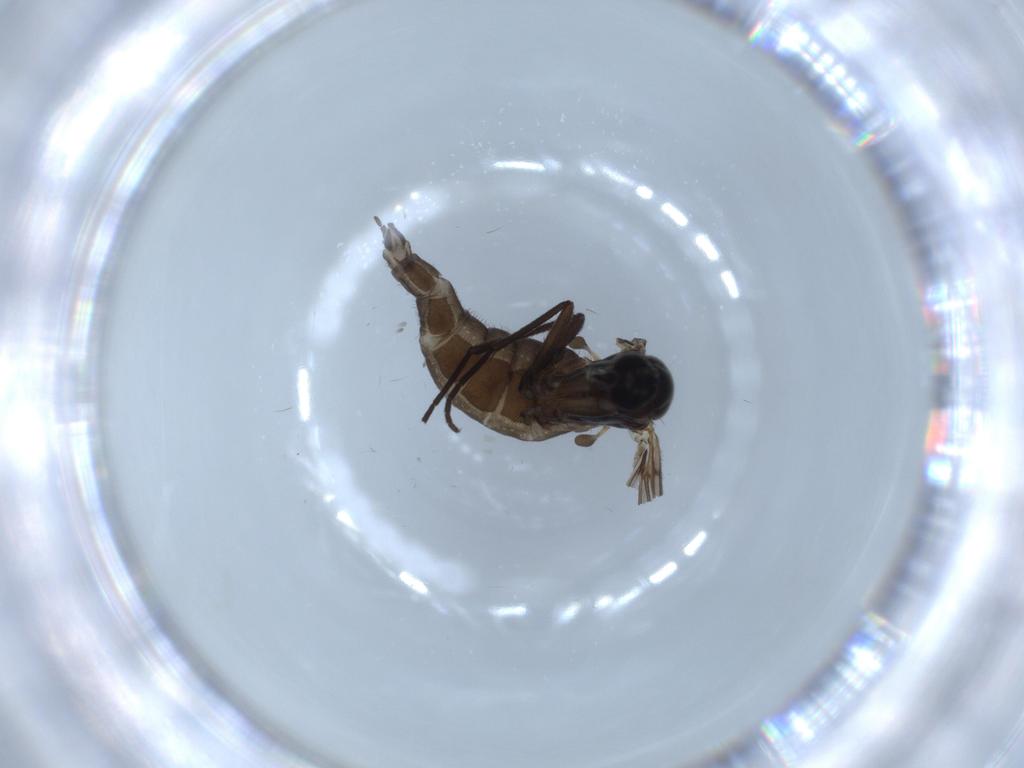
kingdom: Animalia
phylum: Arthropoda
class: Insecta
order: Diptera
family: Sciaridae
